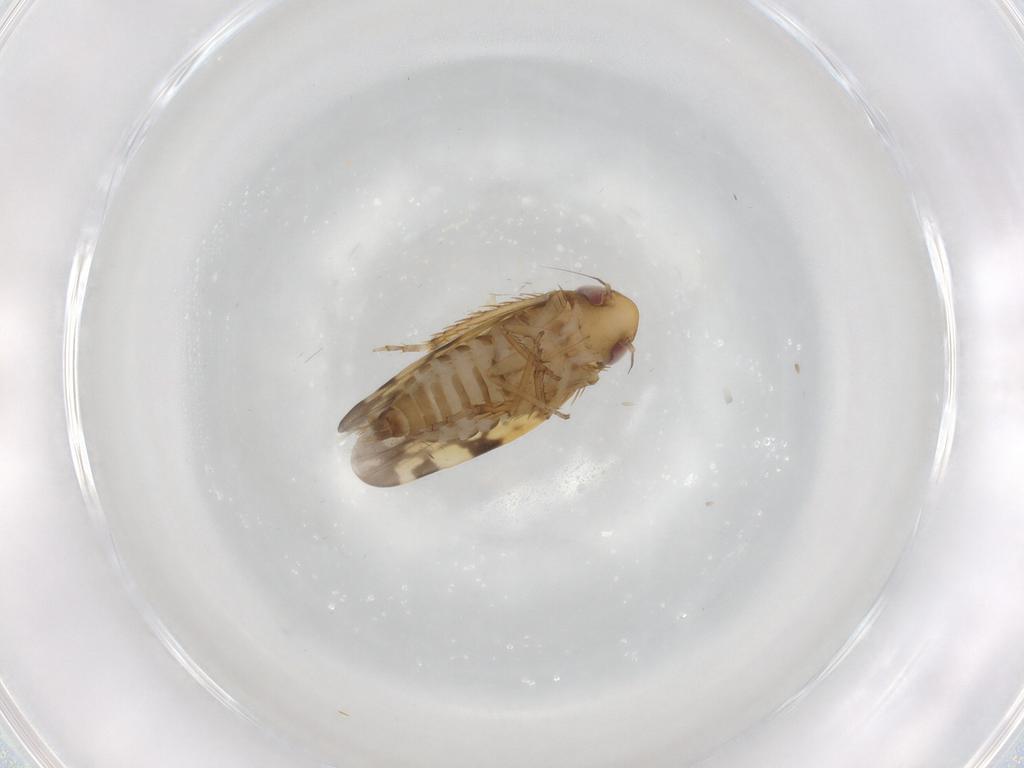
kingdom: Animalia
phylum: Arthropoda
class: Insecta
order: Hemiptera
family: Cicadellidae
